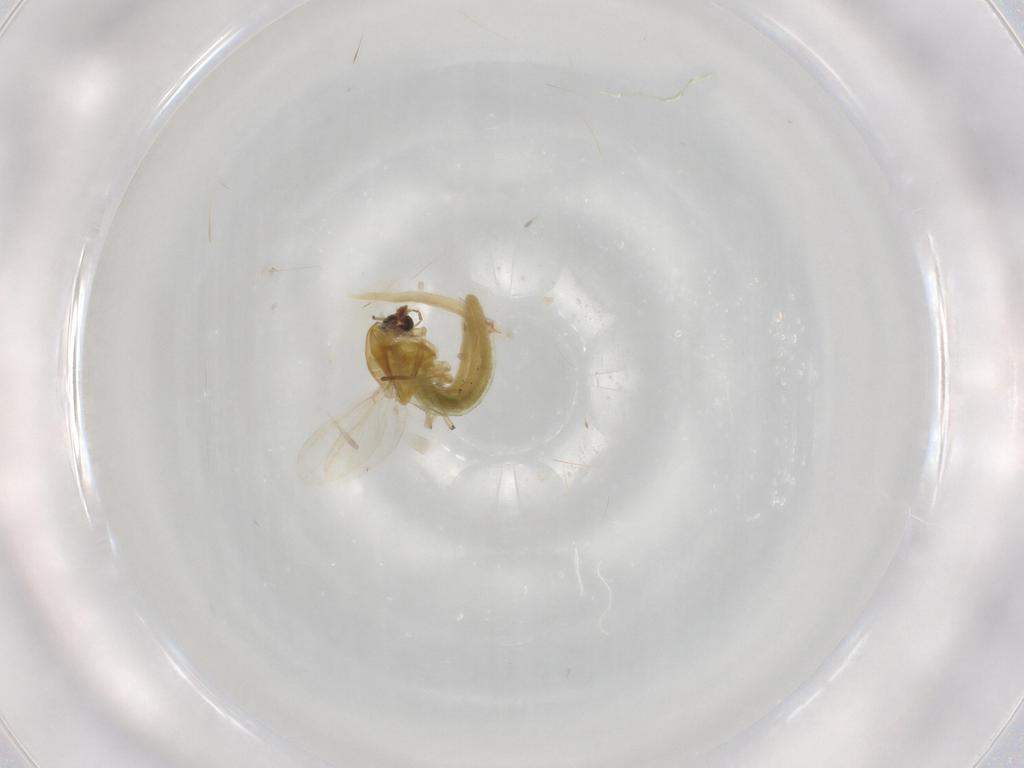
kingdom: Animalia
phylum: Arthropoda
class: Insecta
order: Diptera
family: Chironomidae
